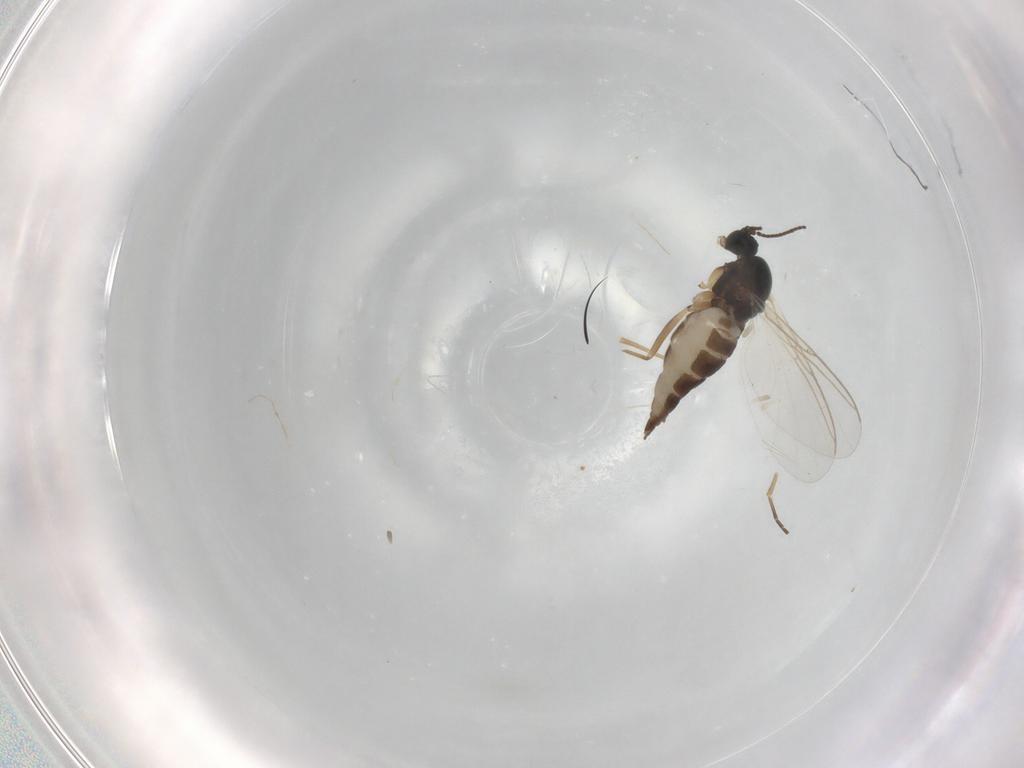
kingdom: Animalia
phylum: Arthropoda
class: Insecta
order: Diptera
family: Sciaridae
